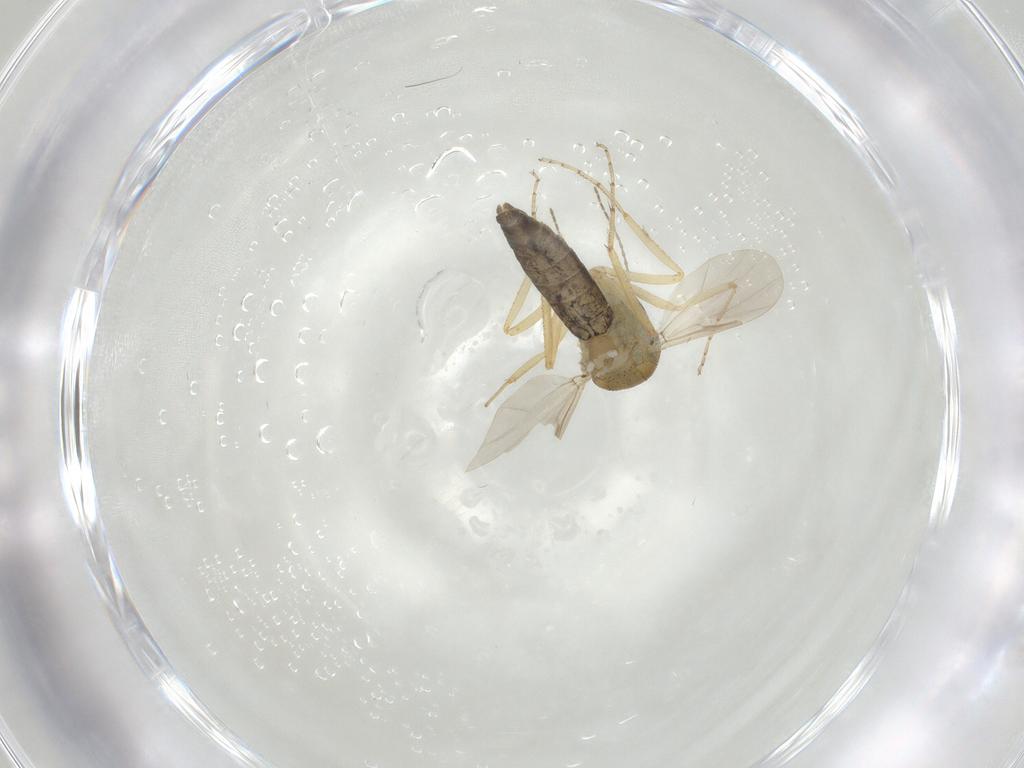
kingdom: Animalia
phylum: Arthropoda
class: Insecta
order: Diptera
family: Ceratopogonidae
